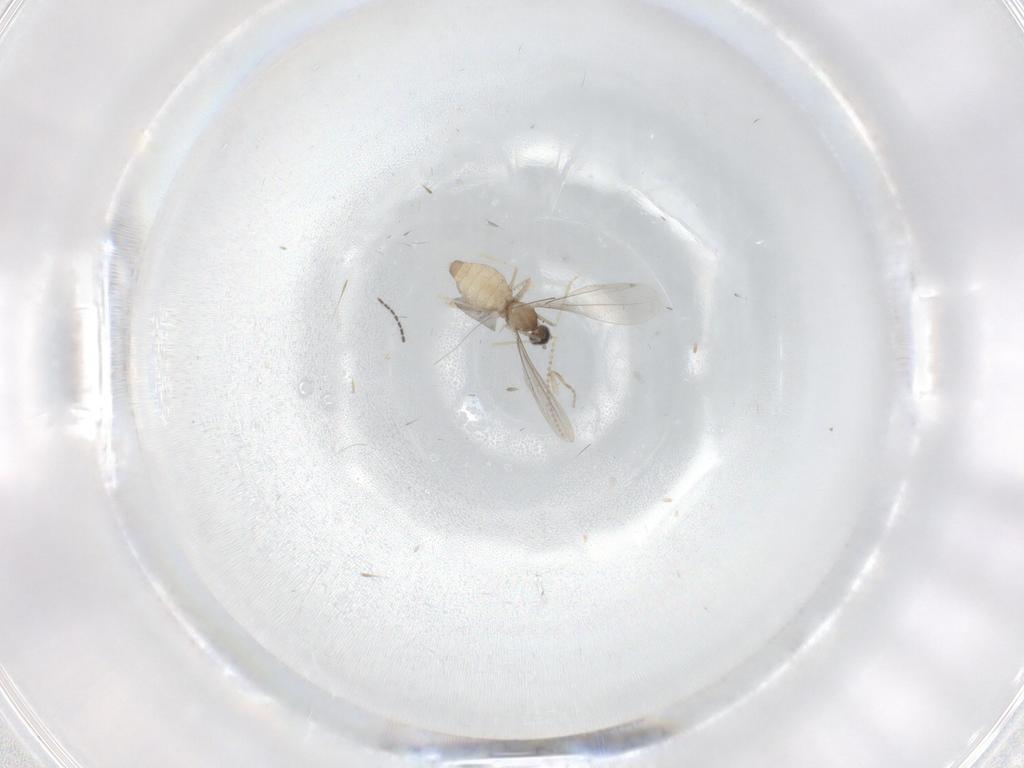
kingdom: Animalia
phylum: Arthropoda
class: Insecta
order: Diptera
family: Cecidomyiidae
